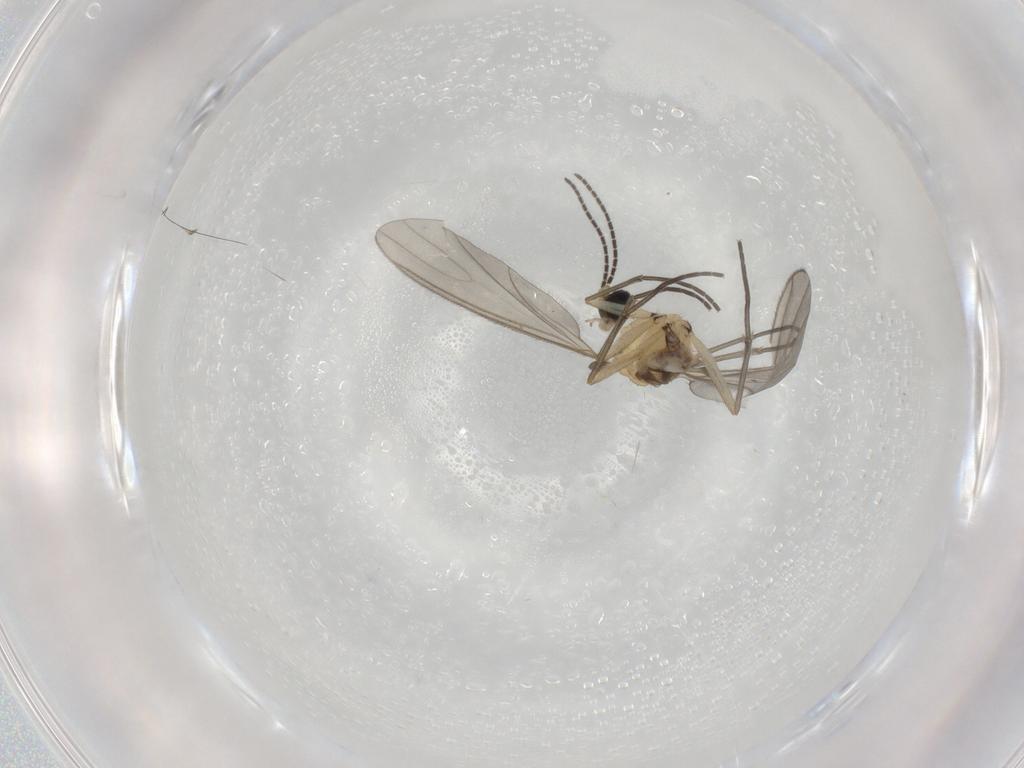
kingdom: Animalia
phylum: Arthropoda
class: Insecta
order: Diptera
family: Sciaridae
